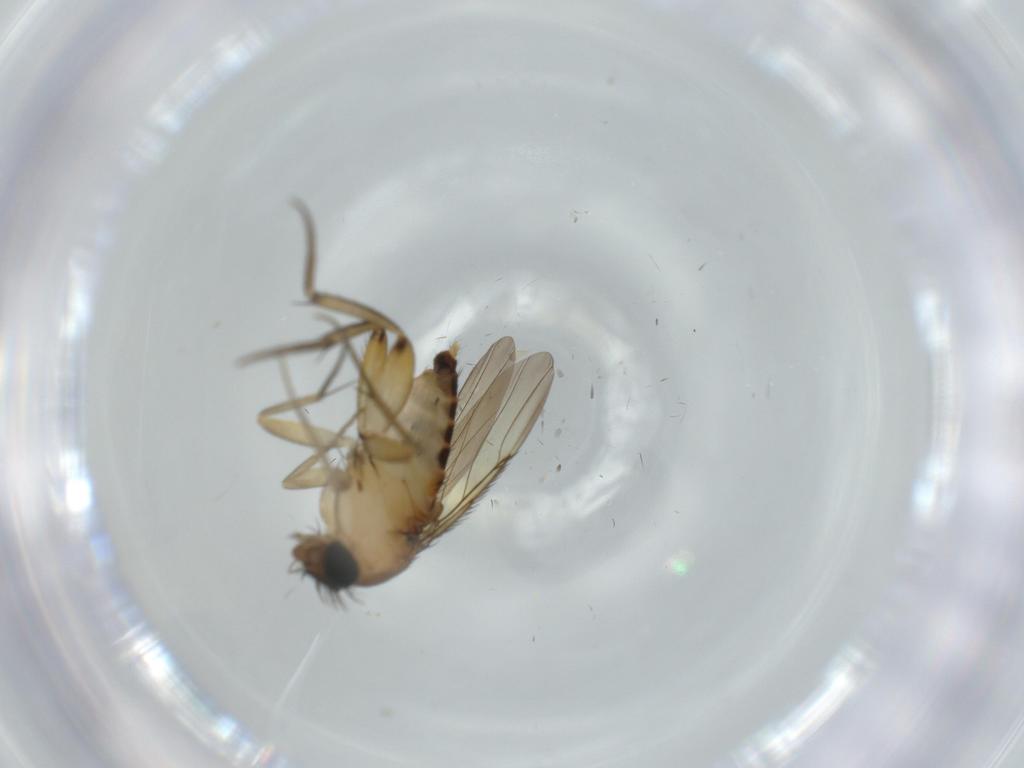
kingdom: Animalia
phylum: Arthropoda
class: Insecta
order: Diptera
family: Phoridae
